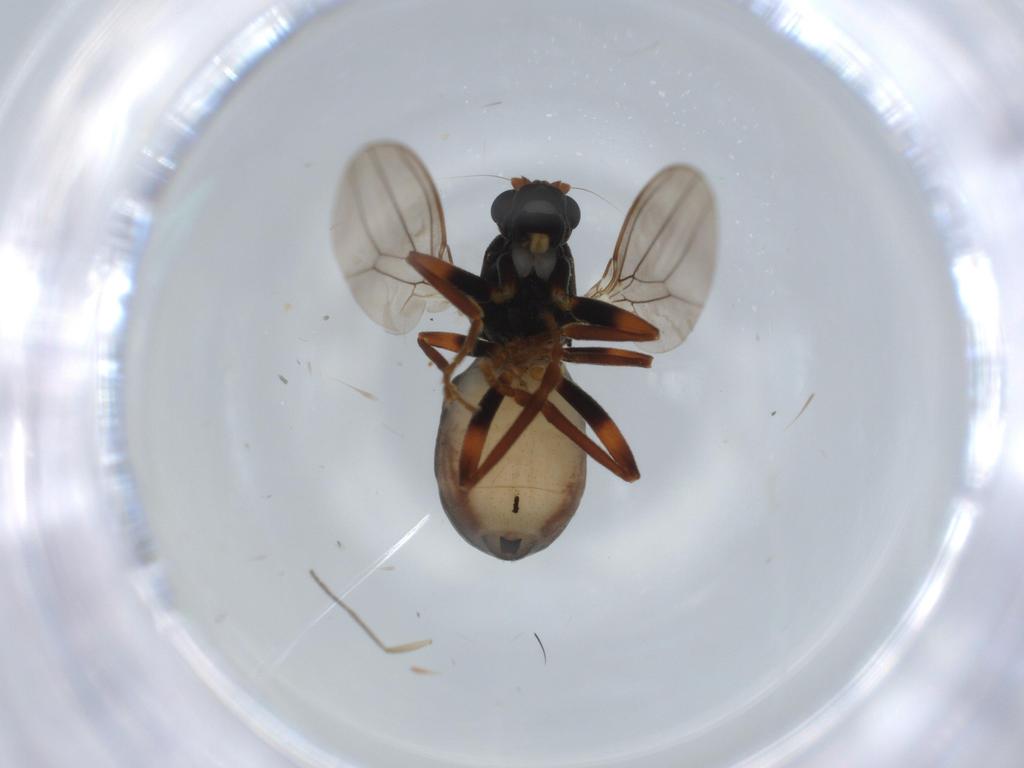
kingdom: Animalia
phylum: Arthropoda
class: Insecta
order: Diptera
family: Sphaeroceridae
